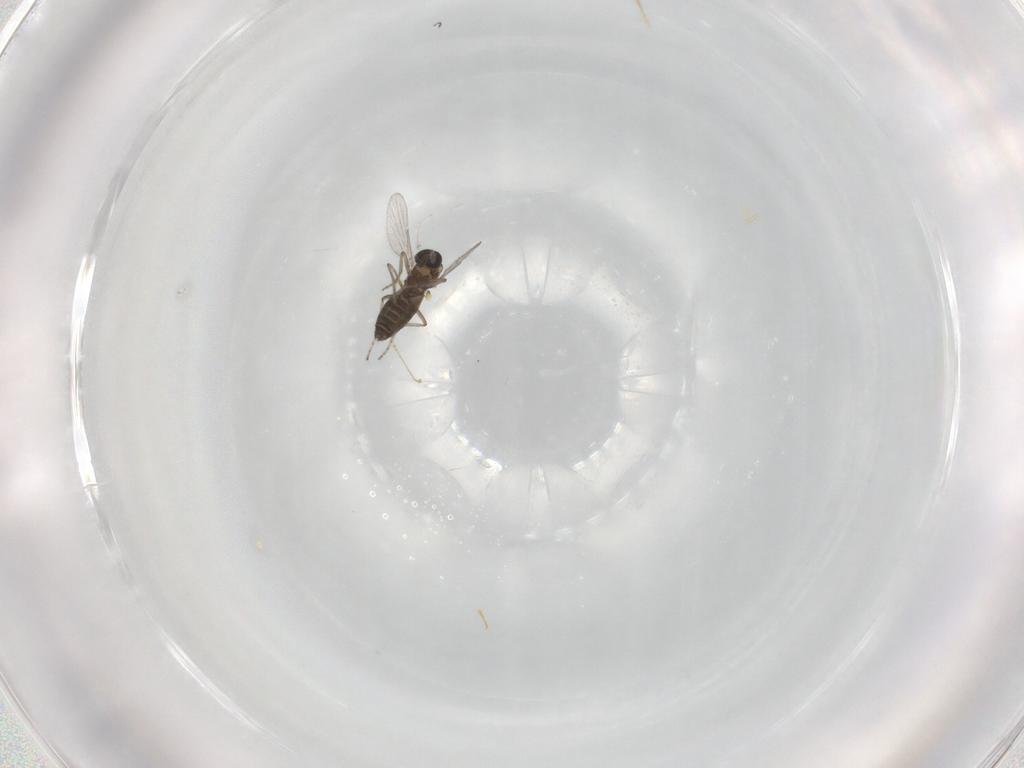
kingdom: Animalia
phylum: Arthropoda
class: Insecta
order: Diptera
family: Ceratopogonidae
